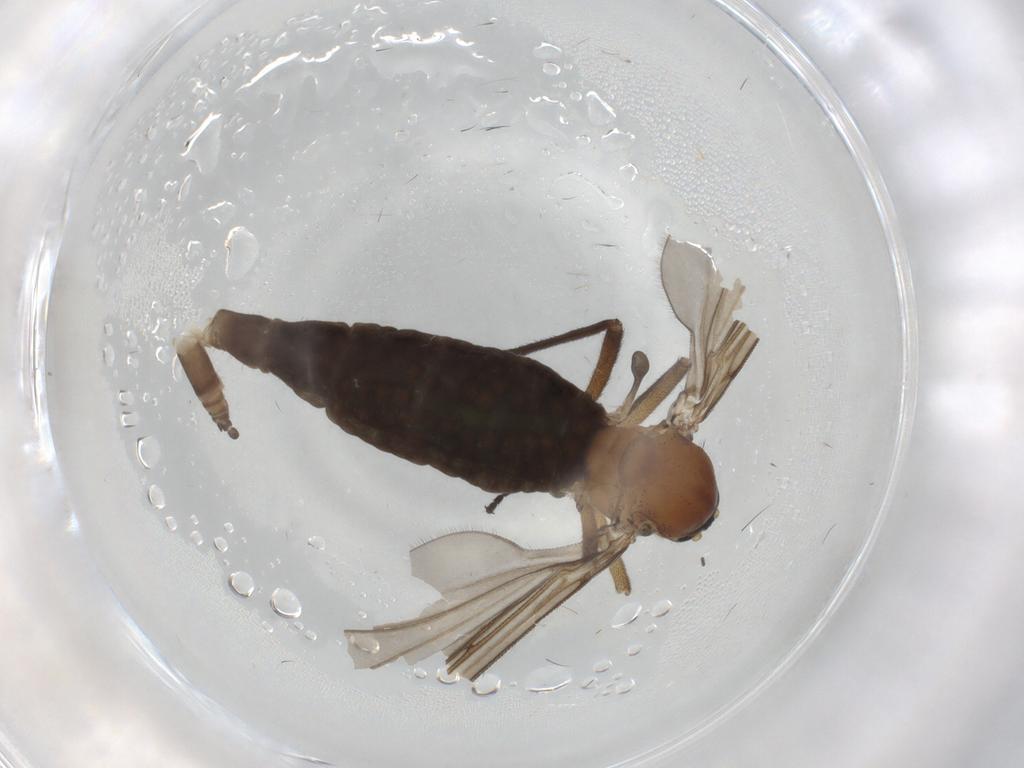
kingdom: Animalia
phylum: Arthropoda
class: Insecta
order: Diptera
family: Sciaridae
